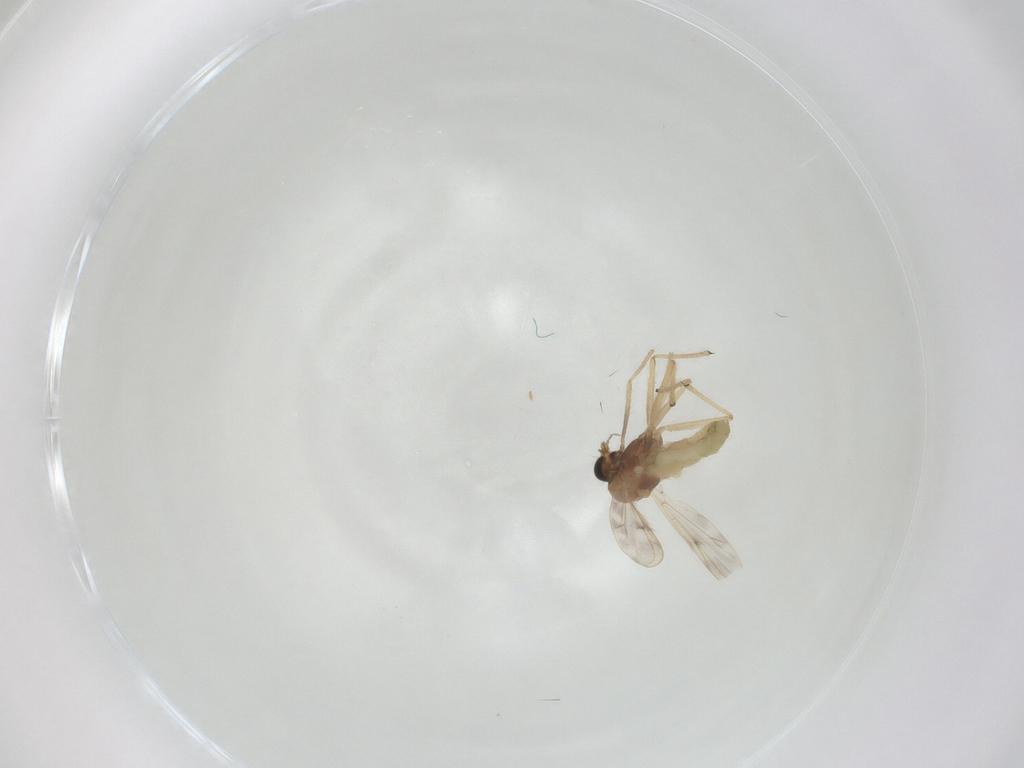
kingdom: Animalia
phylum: Arthropoda
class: Insecta
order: Diptera
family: Chironomidae
